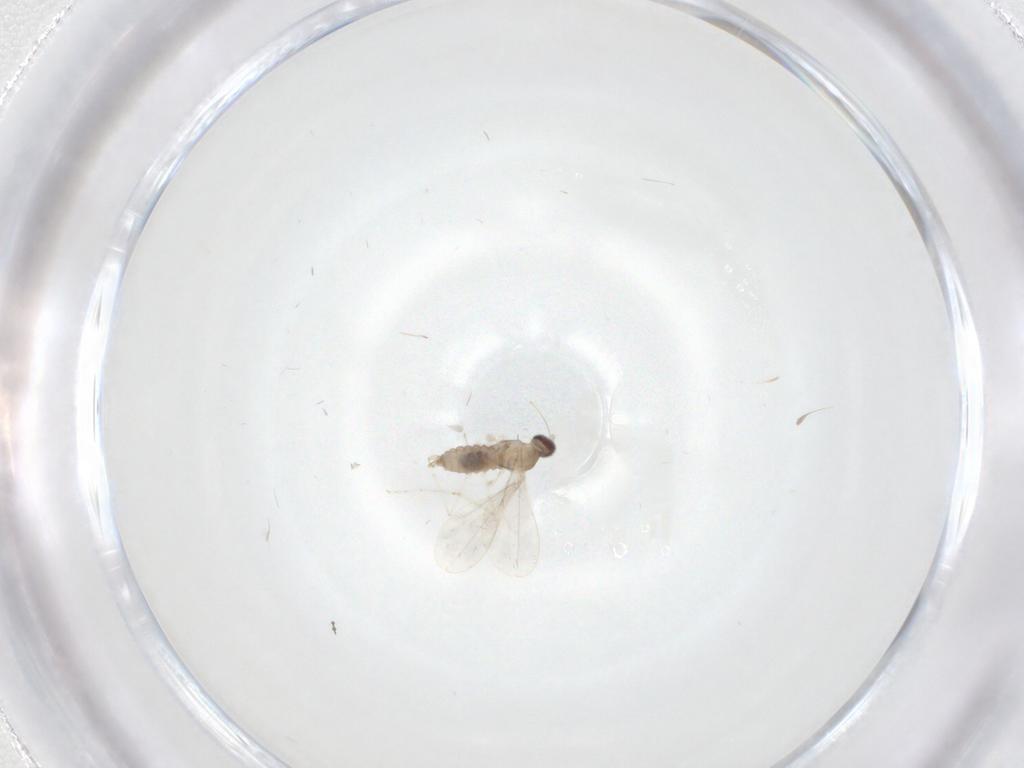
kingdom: Animalia
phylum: Arthropoda
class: Insecta
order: Diptera
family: Cecidomyiidae
